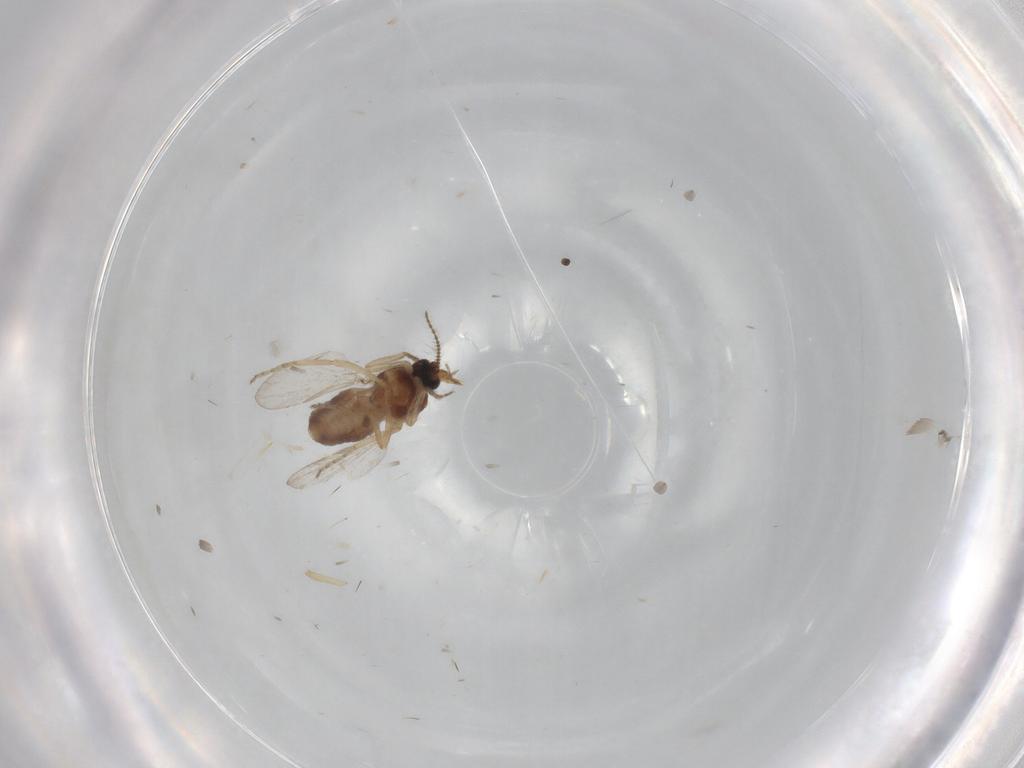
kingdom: Animalia
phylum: Arthropoda
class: Insecta
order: Diptera
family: Ceratopogonidae
